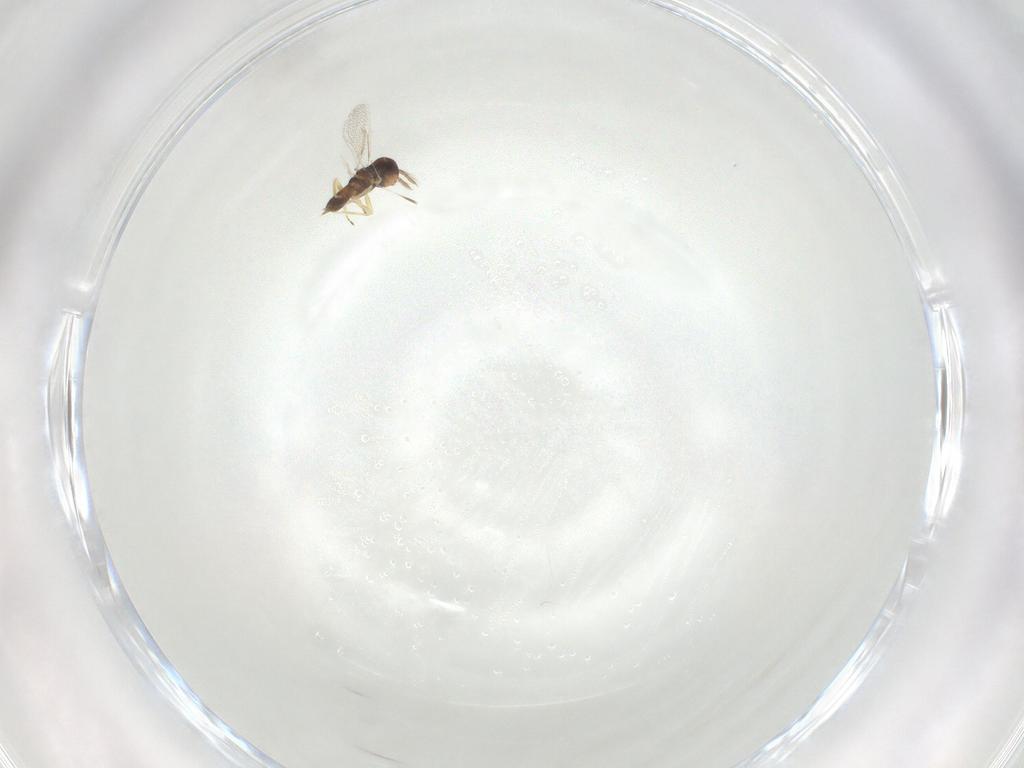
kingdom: Animalia
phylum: Arthropoda
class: Insecta
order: Hymenoptera
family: Eulophidae
